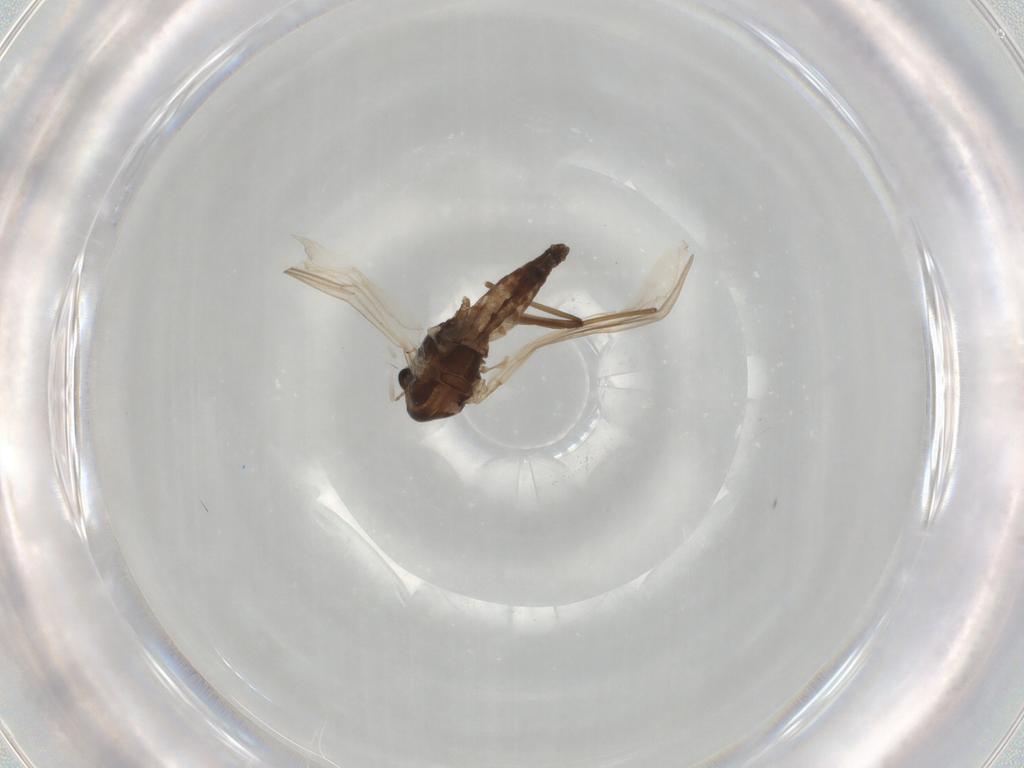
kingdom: Animalia
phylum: Arthropoda
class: Insecta
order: Diptera
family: Chironomidae
